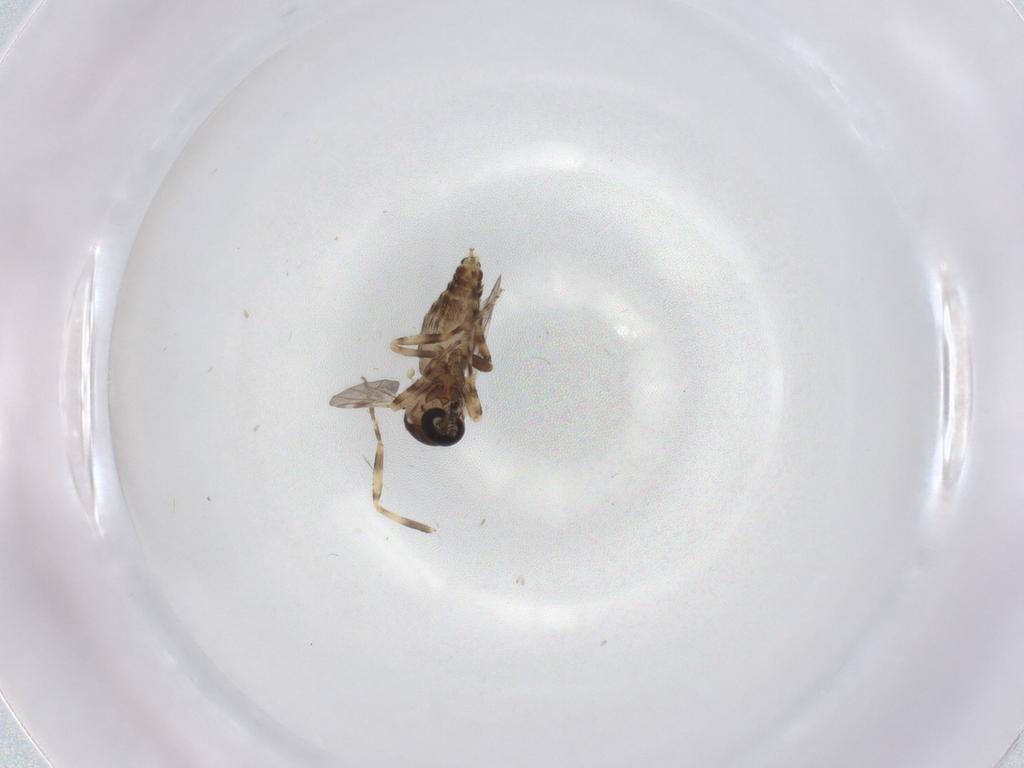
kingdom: Animalia
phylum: Arthropoda
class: Insecta
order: Diptera
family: Ceratopogonidae
